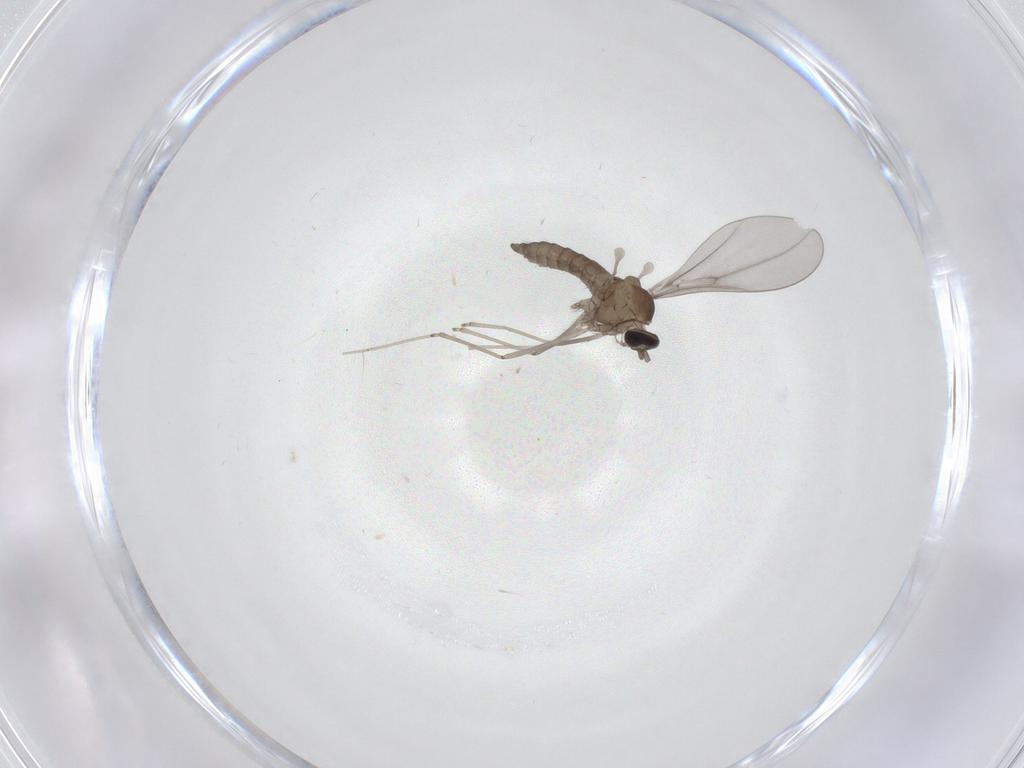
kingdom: Animalia
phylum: Arthropoda
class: Insecta
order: Diptera
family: Cecidomyiidae
